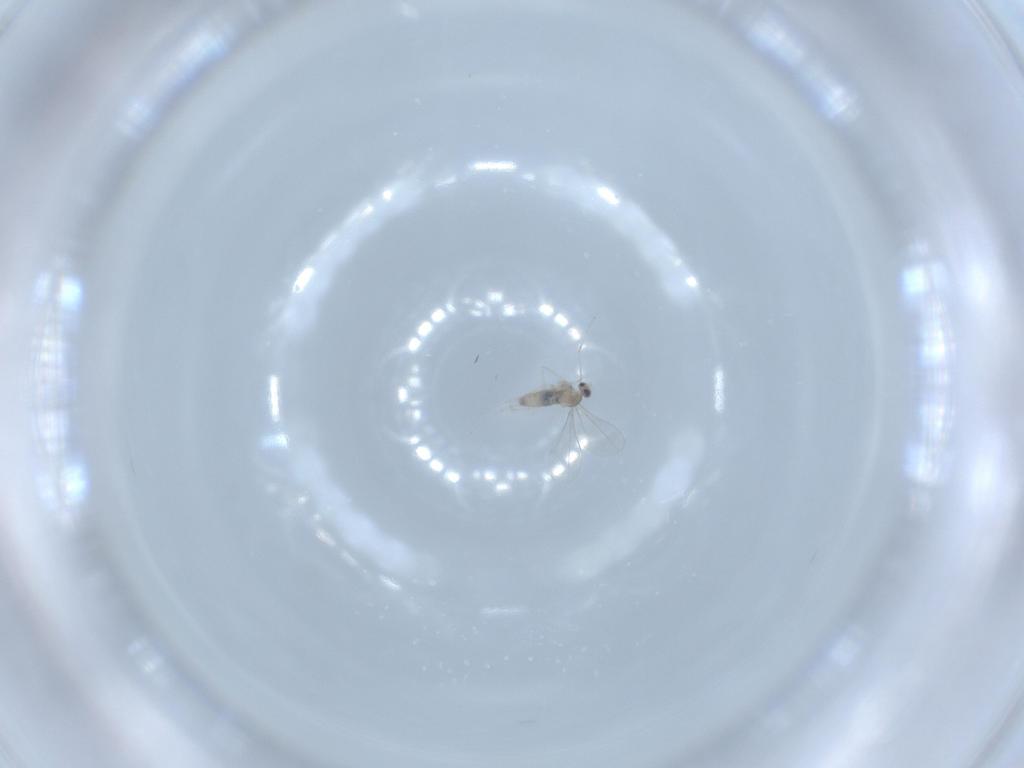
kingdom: Animalia
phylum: Arthropoda
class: Insecta
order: Diptera
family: Cecidomyiidae
